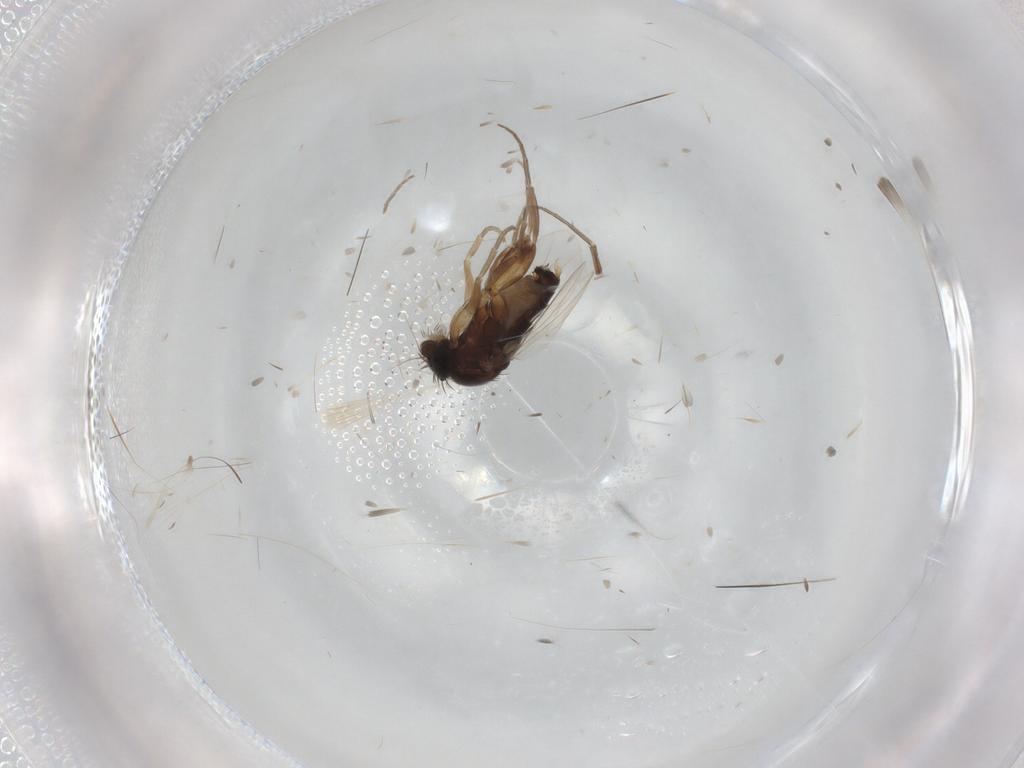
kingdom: Animalia
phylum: Arthropoda
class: Insecta
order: Diptera
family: Phoridae
